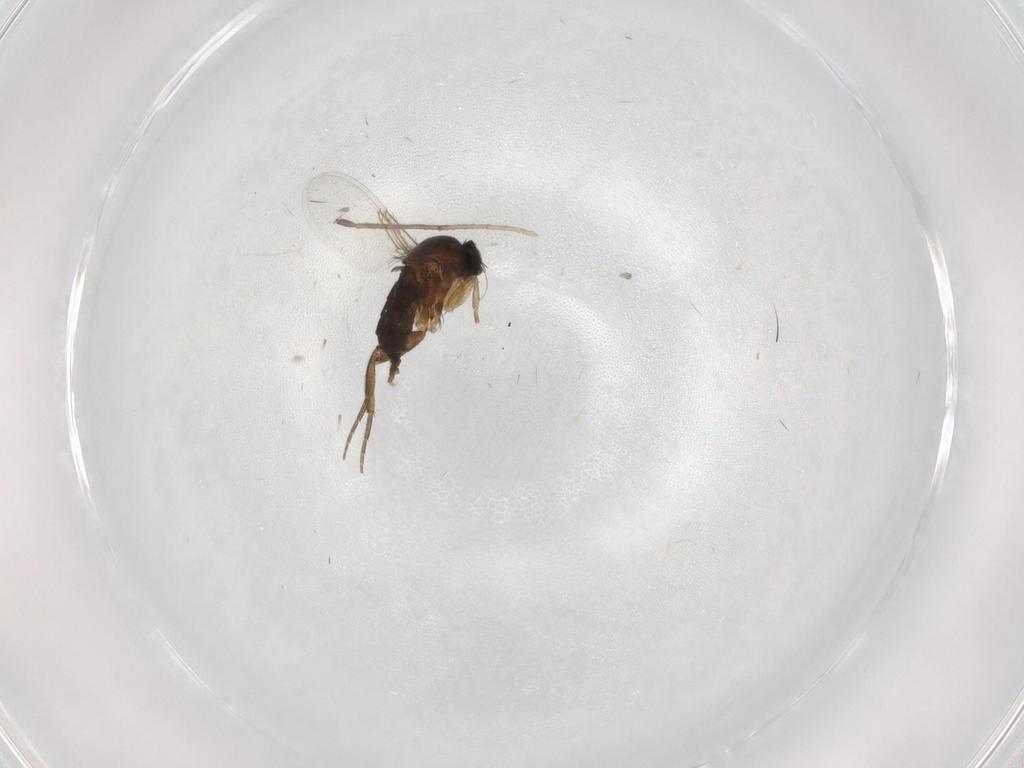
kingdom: Animalia
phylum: Arthropoda
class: Insecta
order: Diptera
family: Phoridae
